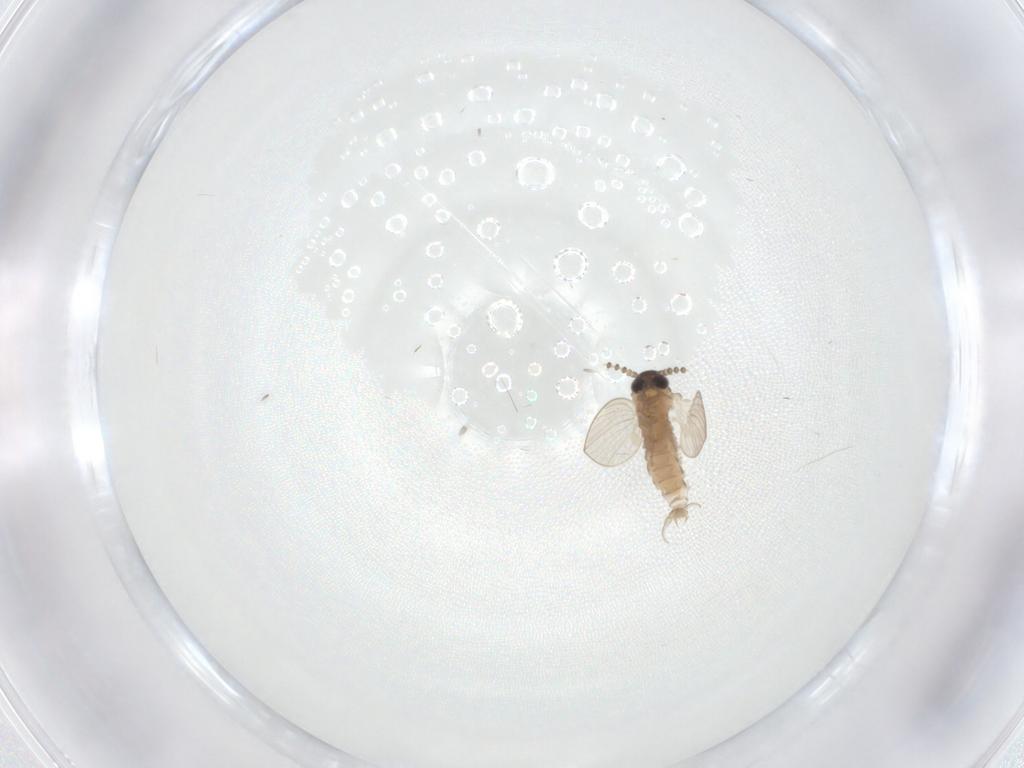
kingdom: Animalia
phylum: Arthropoda
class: Insecta
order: Diptera
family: Psychodidae
